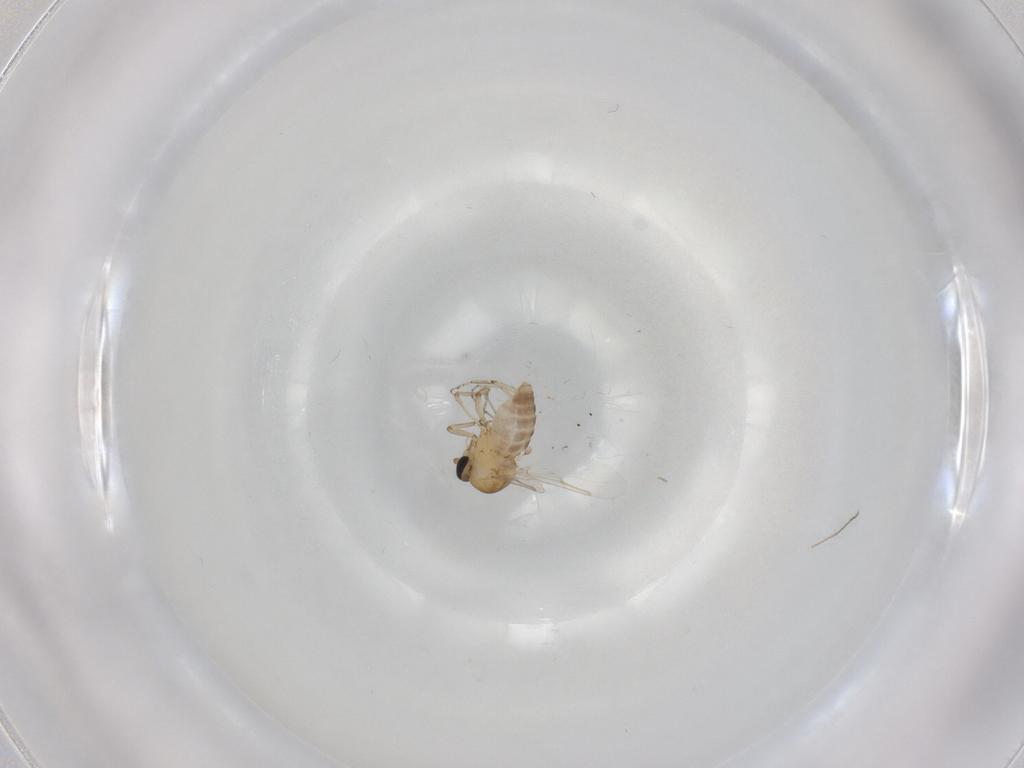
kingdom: Animalia
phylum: Arthropoda
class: Insecta
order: Diptera
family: Ceratopogonidae
